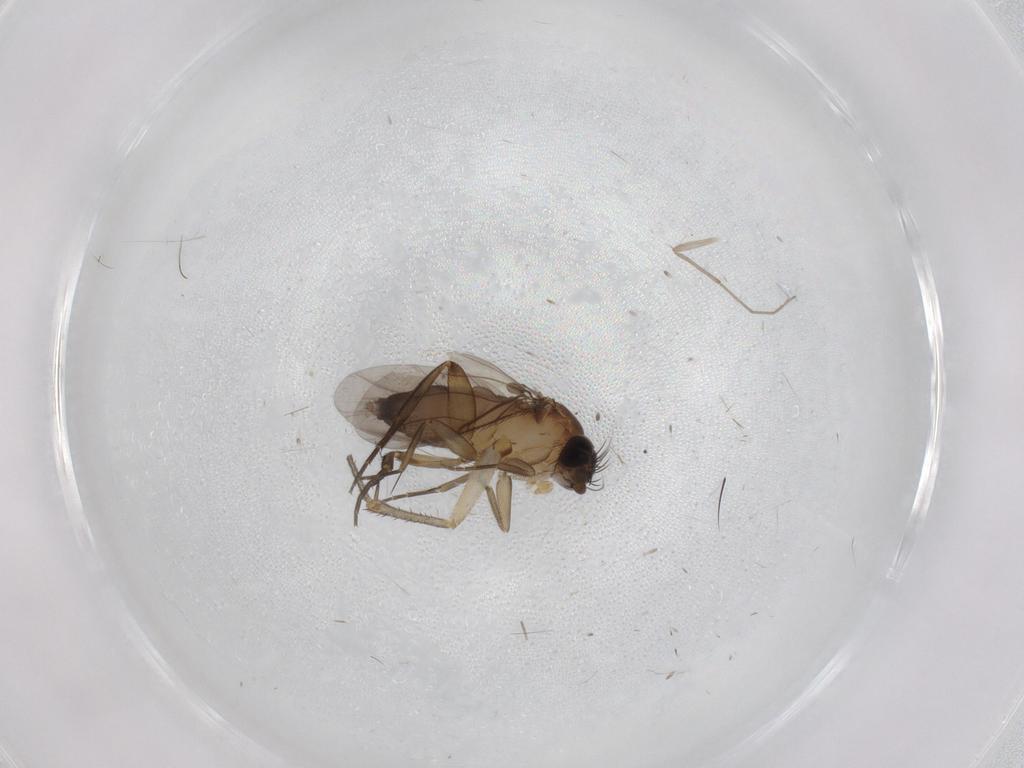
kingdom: Animalia
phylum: Arthropoda
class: Insecta
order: Diptera
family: Phoridae
